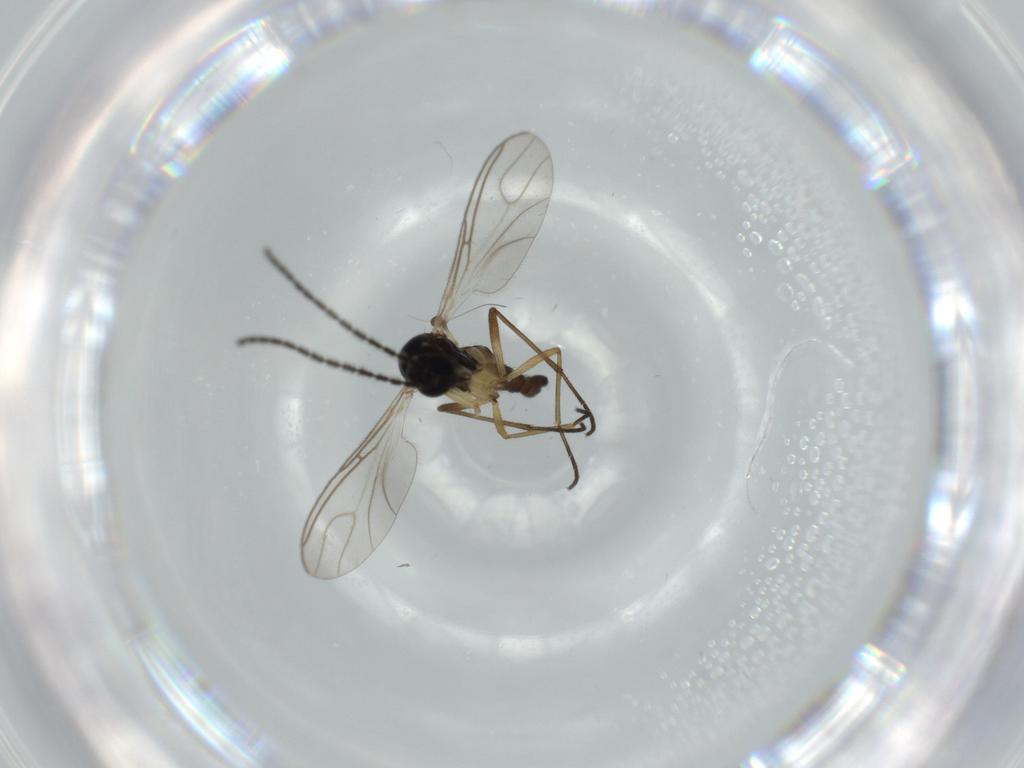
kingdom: Animalia
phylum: Arthropoda
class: Insecta
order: Diptera
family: Sciaridae
